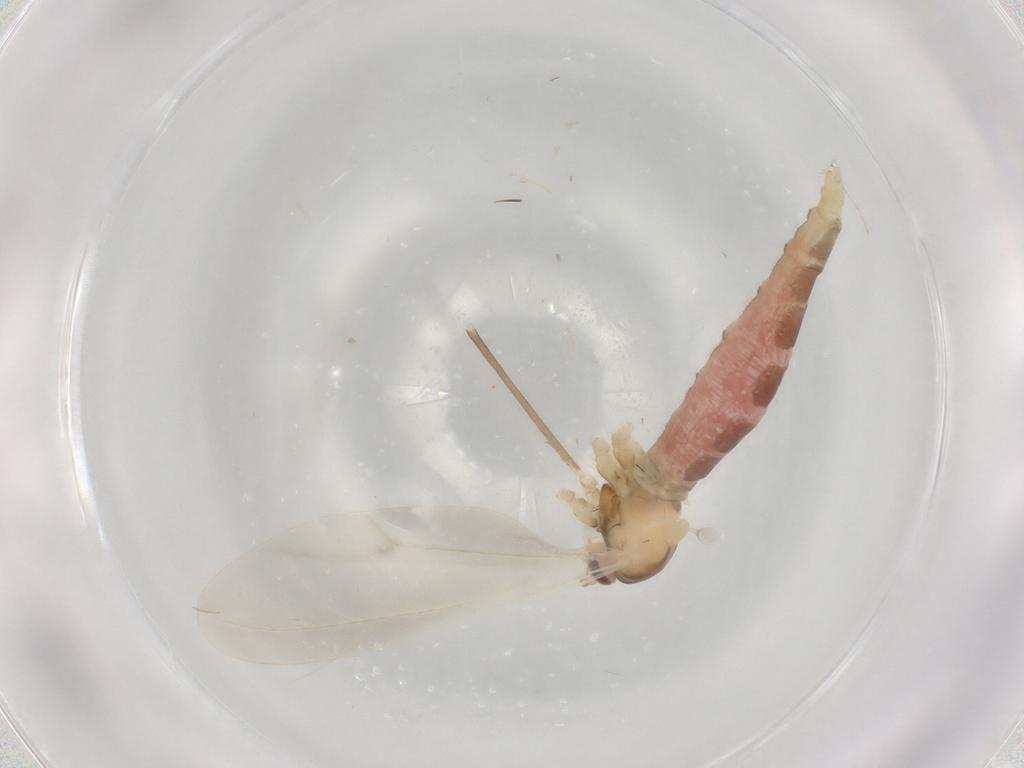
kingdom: Animalia
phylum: Arthropoda
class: Insecta
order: Diptera
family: Cecidomyiidae
